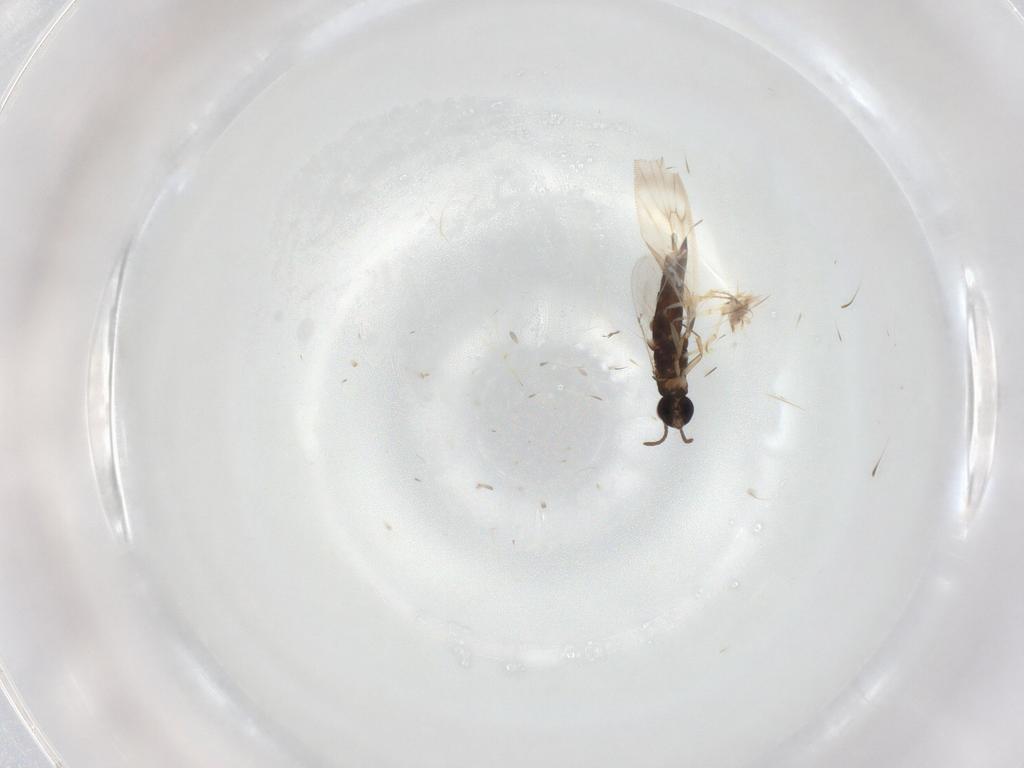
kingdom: Animalia
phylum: Arthropoda
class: Insecta
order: Hymenoptera
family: Encyrtidae
